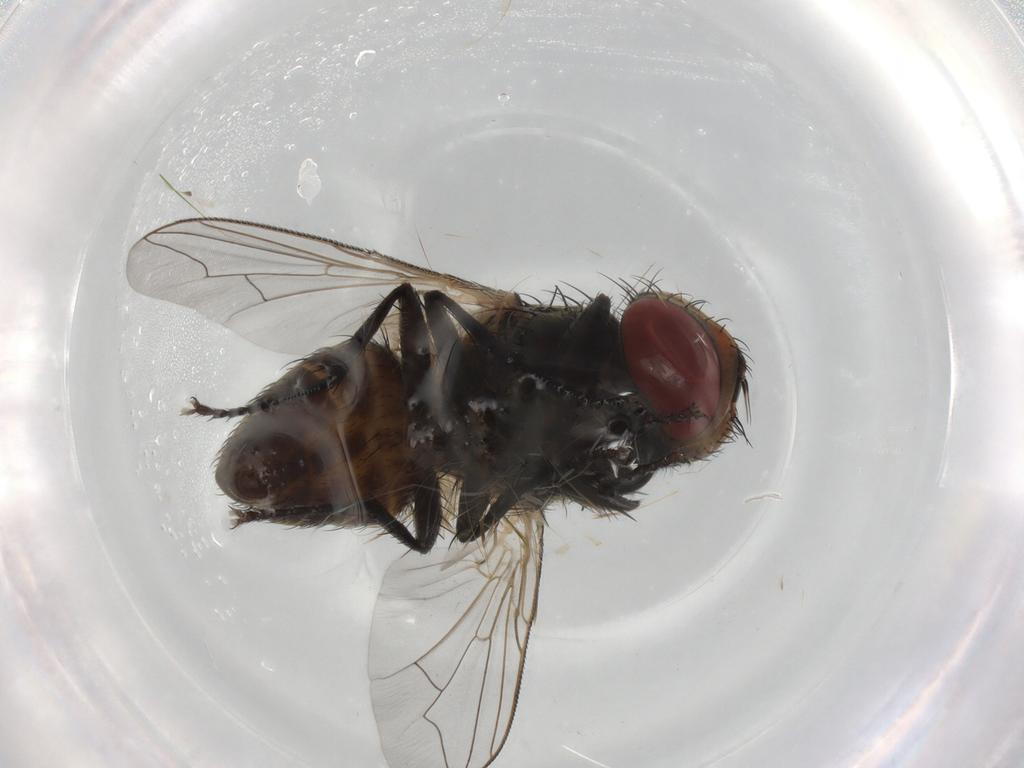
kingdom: Animalia
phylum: Arthropoda
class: Insecta
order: Diptera
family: Sarcophagidae
